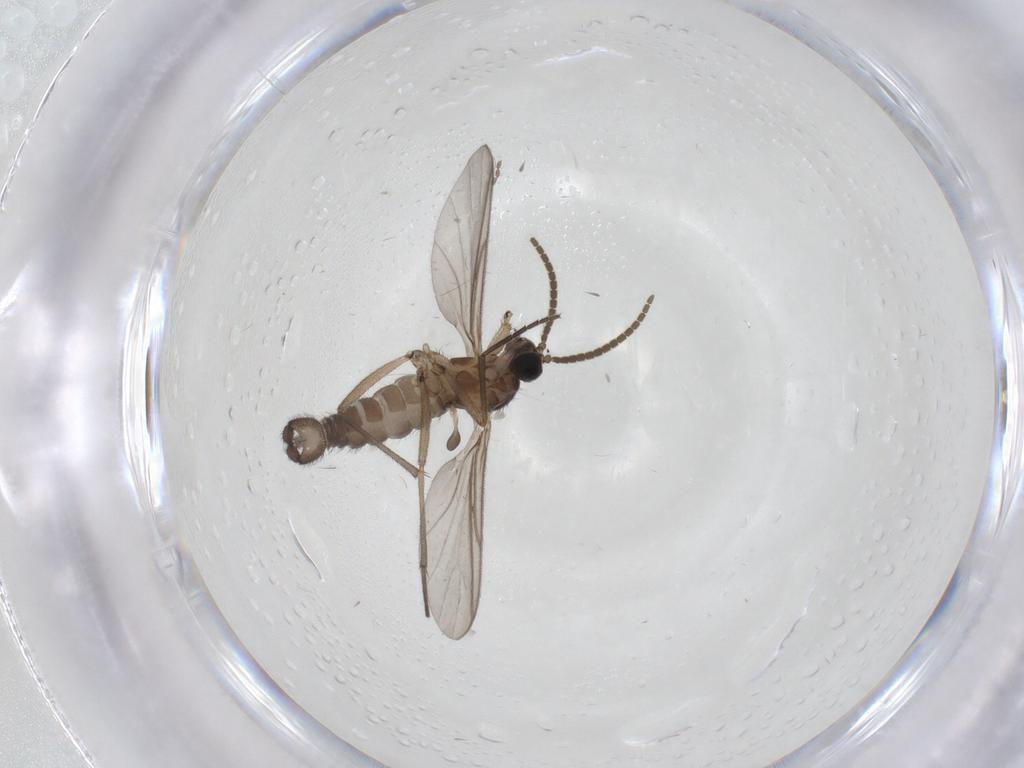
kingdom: Animalia
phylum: Arthropoda
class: Insecta
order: Diptera
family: Sciaridae
